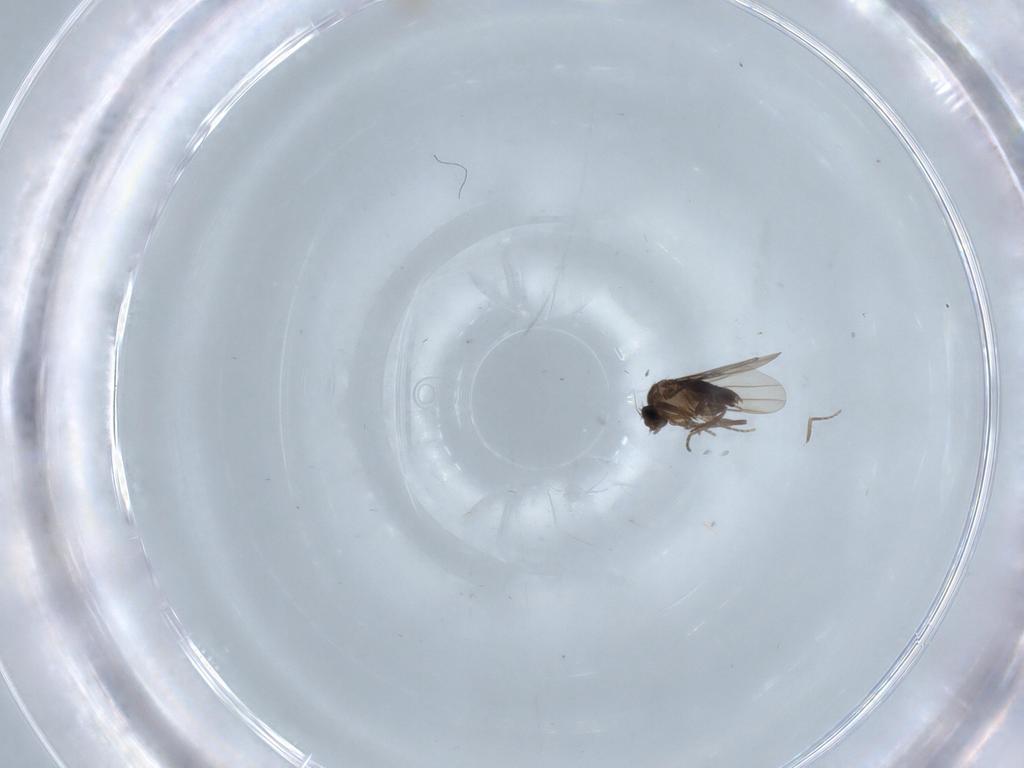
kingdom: Animalia
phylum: Arthropoda
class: Insecta
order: Diptera
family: Phoridae
